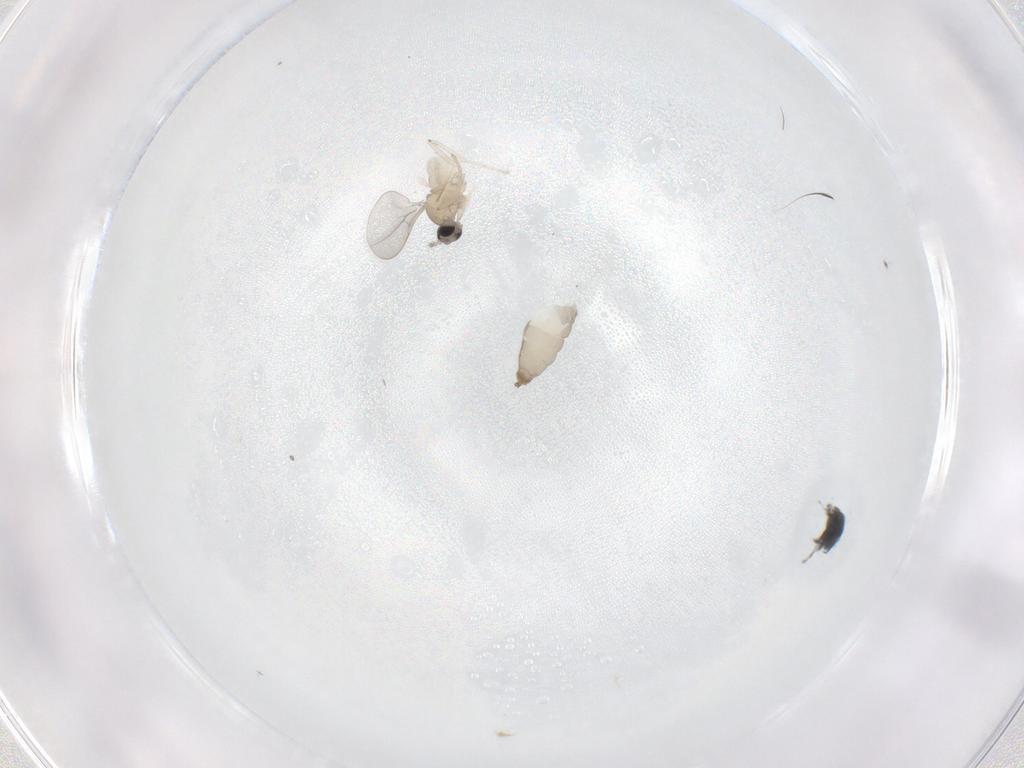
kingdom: Animalia
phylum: Arthropoda
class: Insecta
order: Diptera
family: Cecidomyiidae
